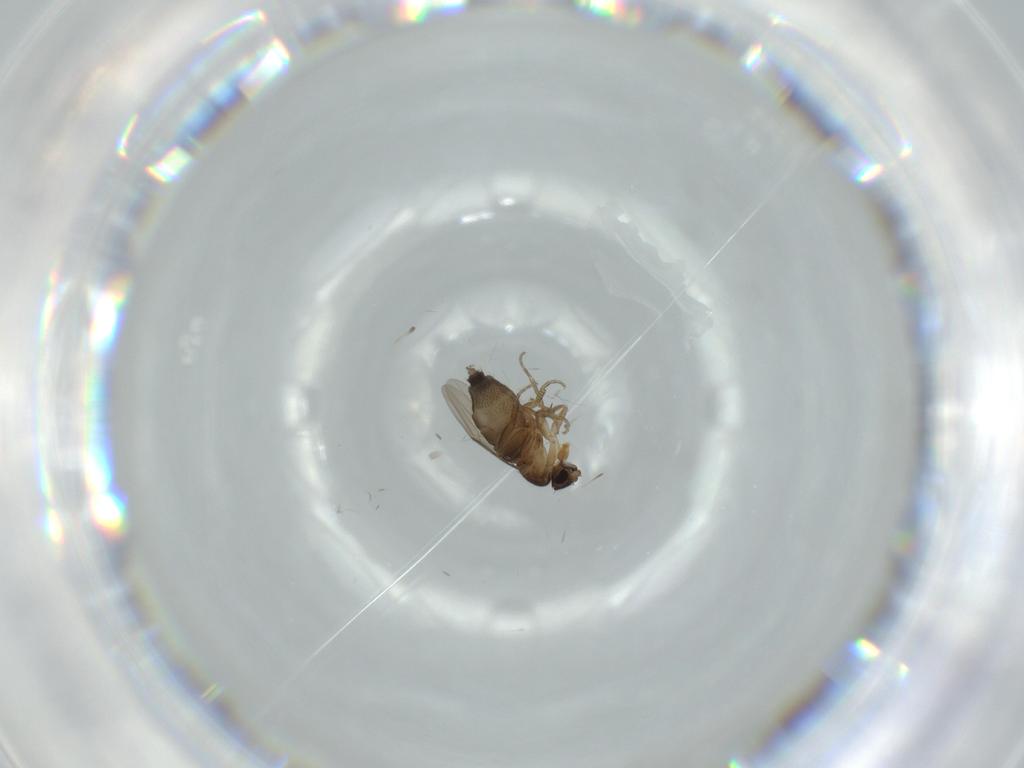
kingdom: Animalia
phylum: Arthropoda
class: Insecta
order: Diptera
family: Phoridae
